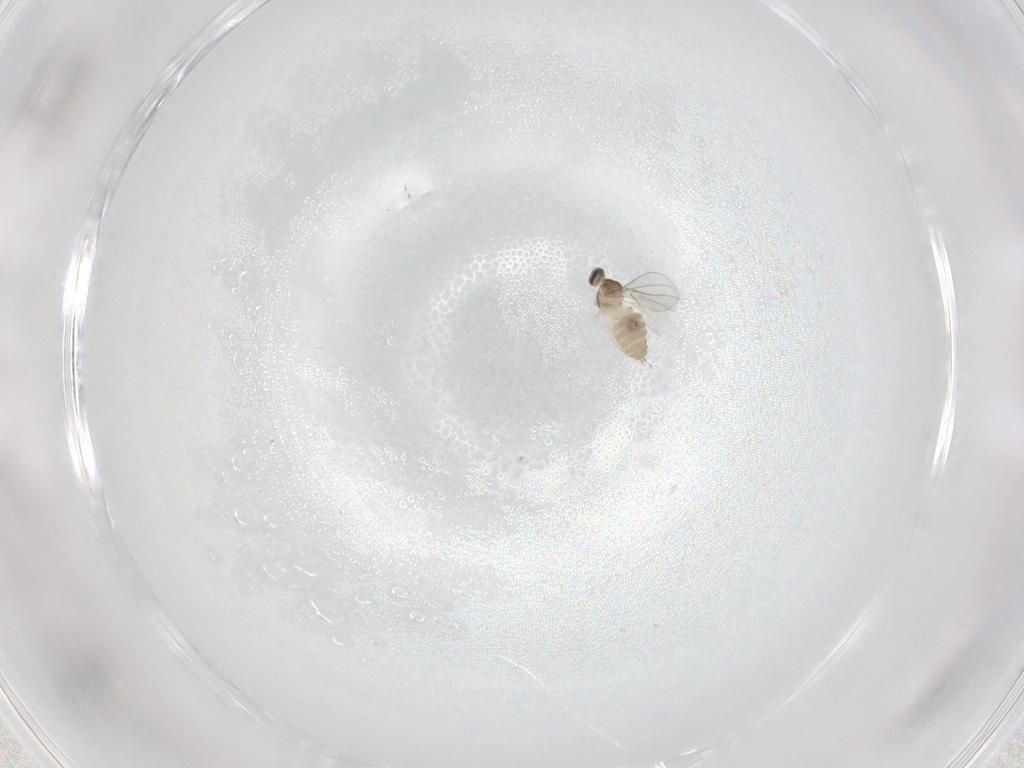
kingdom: Animalia
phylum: Arthropoda
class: Insecta
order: Diptera
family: Cecidomyiidae
